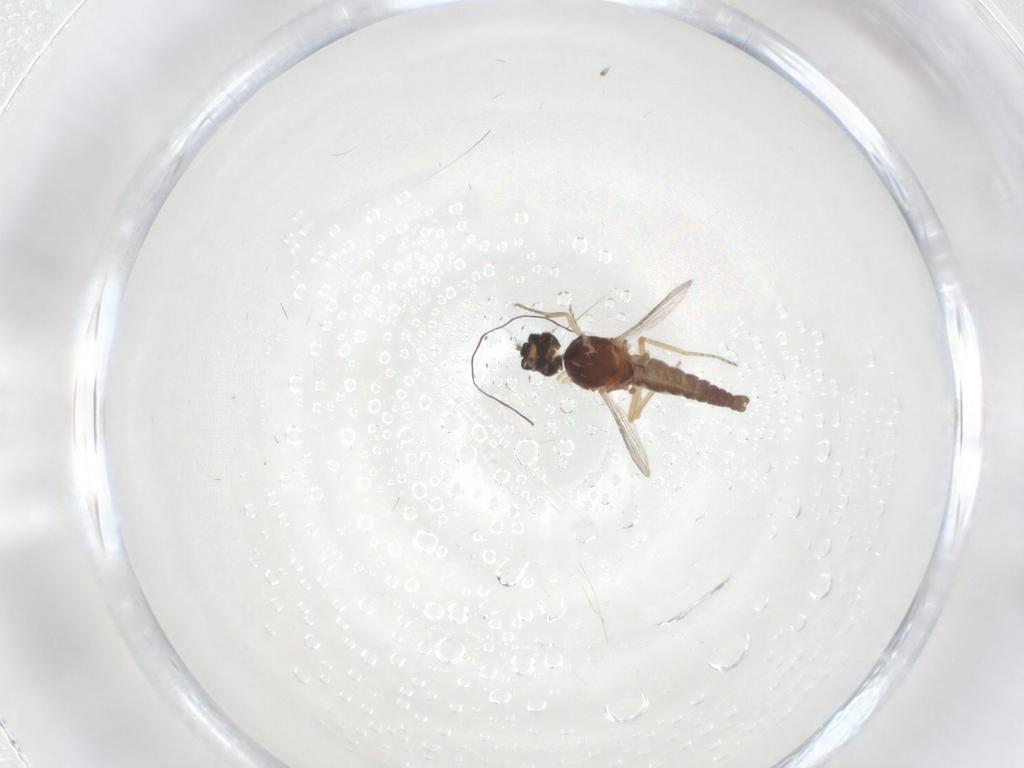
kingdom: Animalia
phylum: Arthropoda
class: Insecta
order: Diptera
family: Ceratopogonidae
